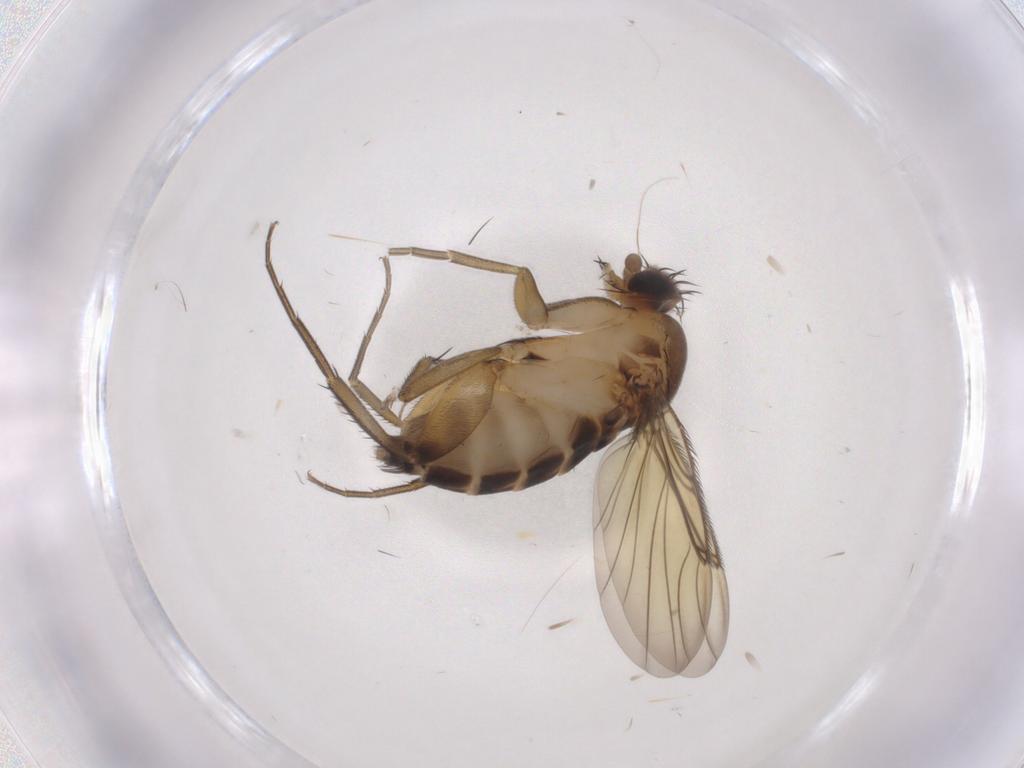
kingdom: Animalia
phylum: Arthropoda
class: Insecta
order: Diptera
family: Phoridae
